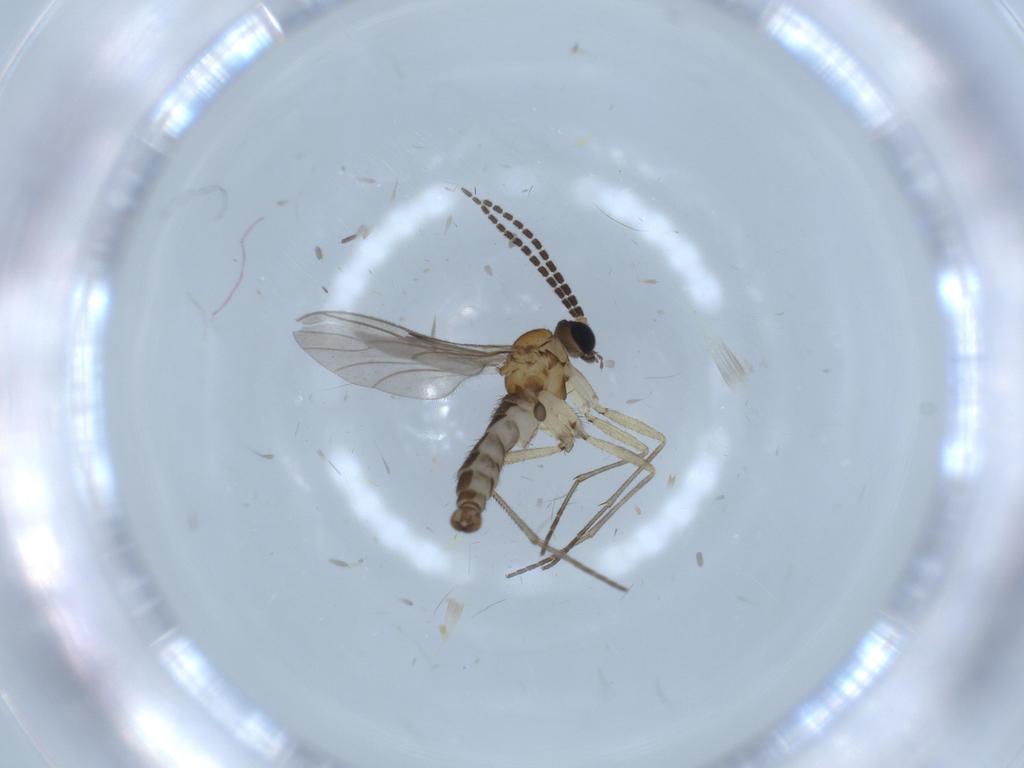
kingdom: Animalia
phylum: Arthropoda
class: Insecta
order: Diptera
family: Sciaridae
